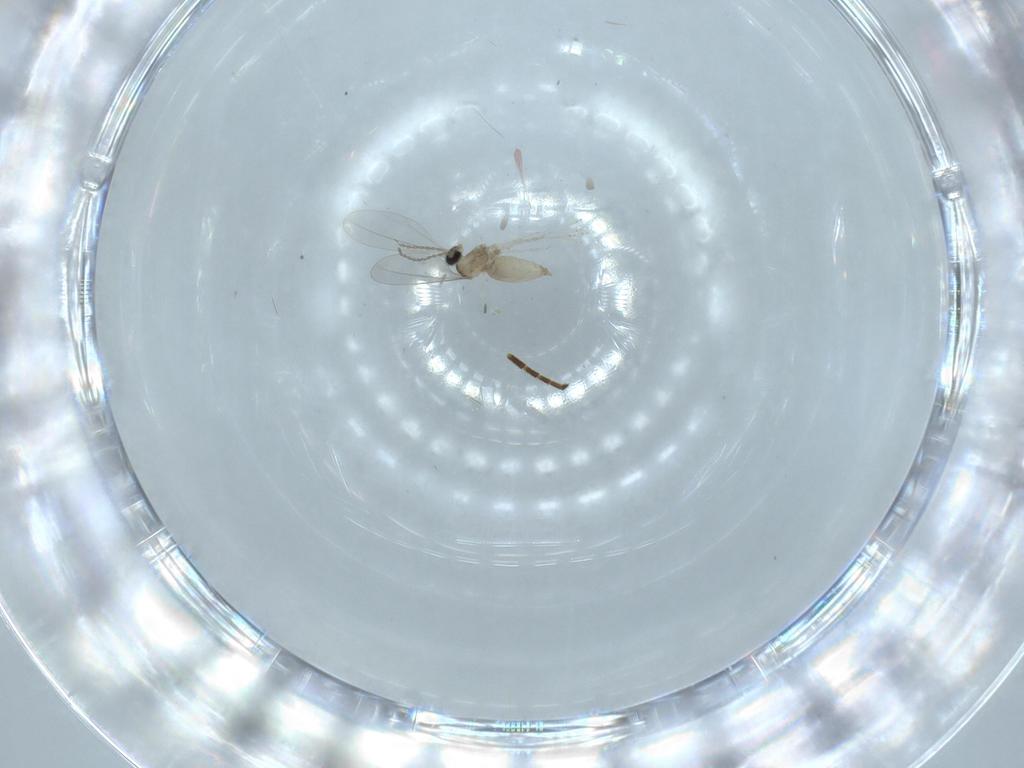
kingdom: Animalia
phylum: Arthropoda
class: Insecta
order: Diptera
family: Cecidomyiidae
